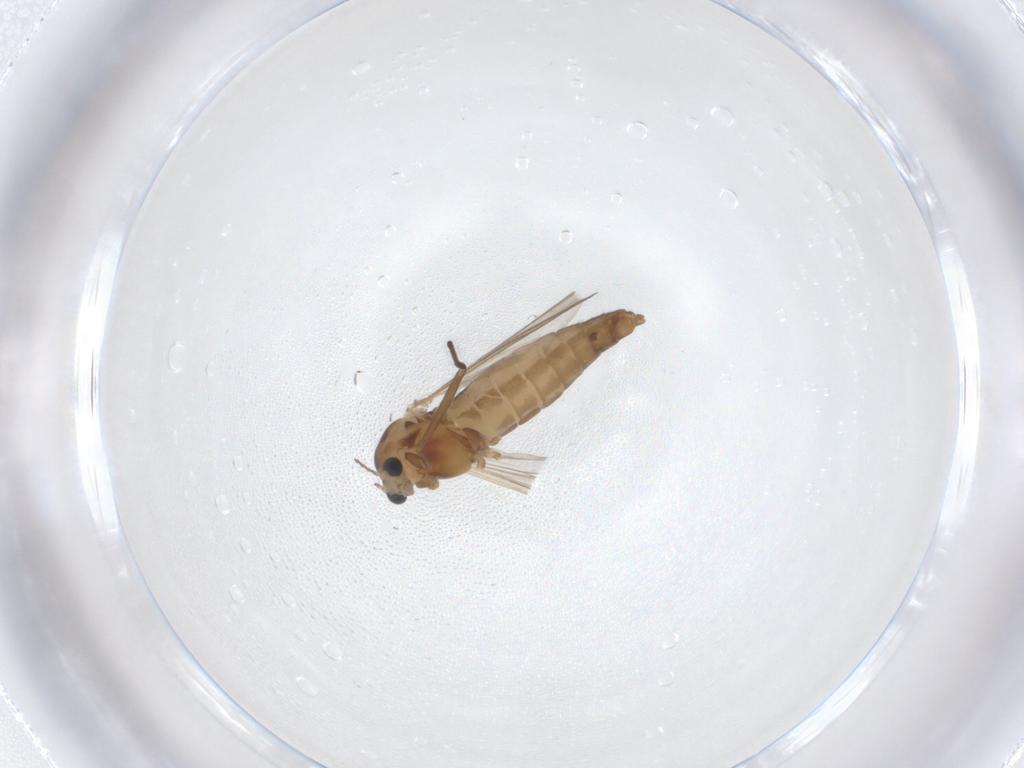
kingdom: Animalia
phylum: Arthropoda
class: Insecta
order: Diptera
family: Chironomidae
